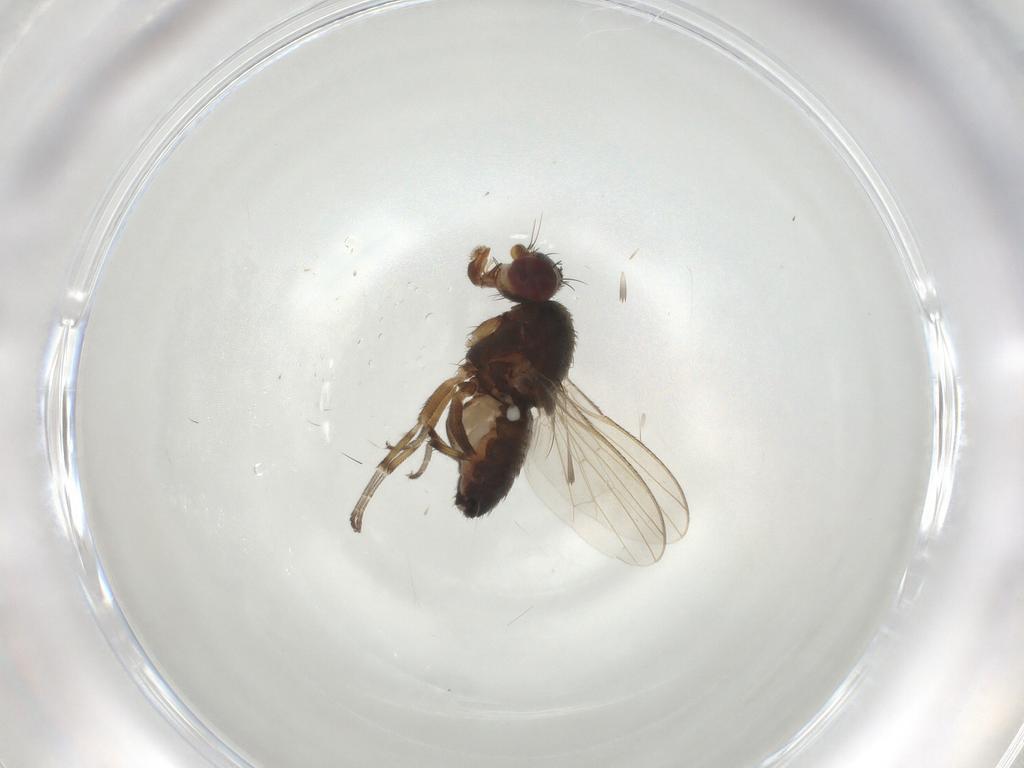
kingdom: Animalia
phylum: Arthropoda
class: Insecta
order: Diptera
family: Heleomyzidae
